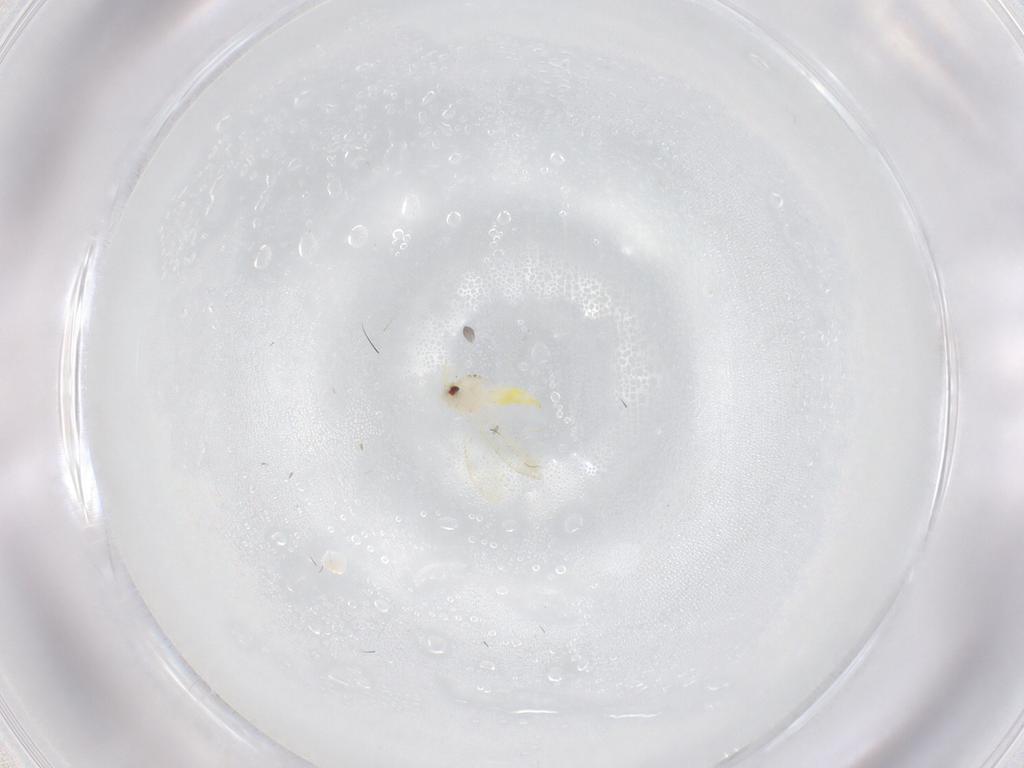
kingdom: Animalia
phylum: Arthropoda
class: Insecta
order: Hemiptera
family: Aleyrodidae
